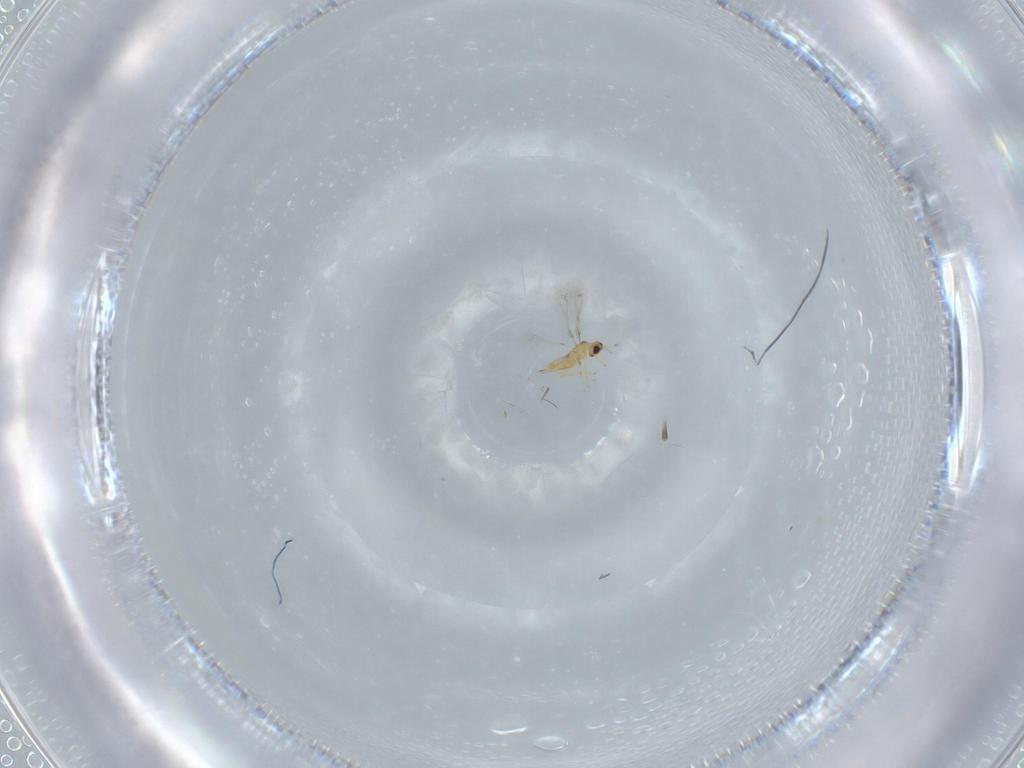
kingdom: Animalia
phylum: Arthropoda
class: Insecta
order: Hymenoptera
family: Mymaridae
